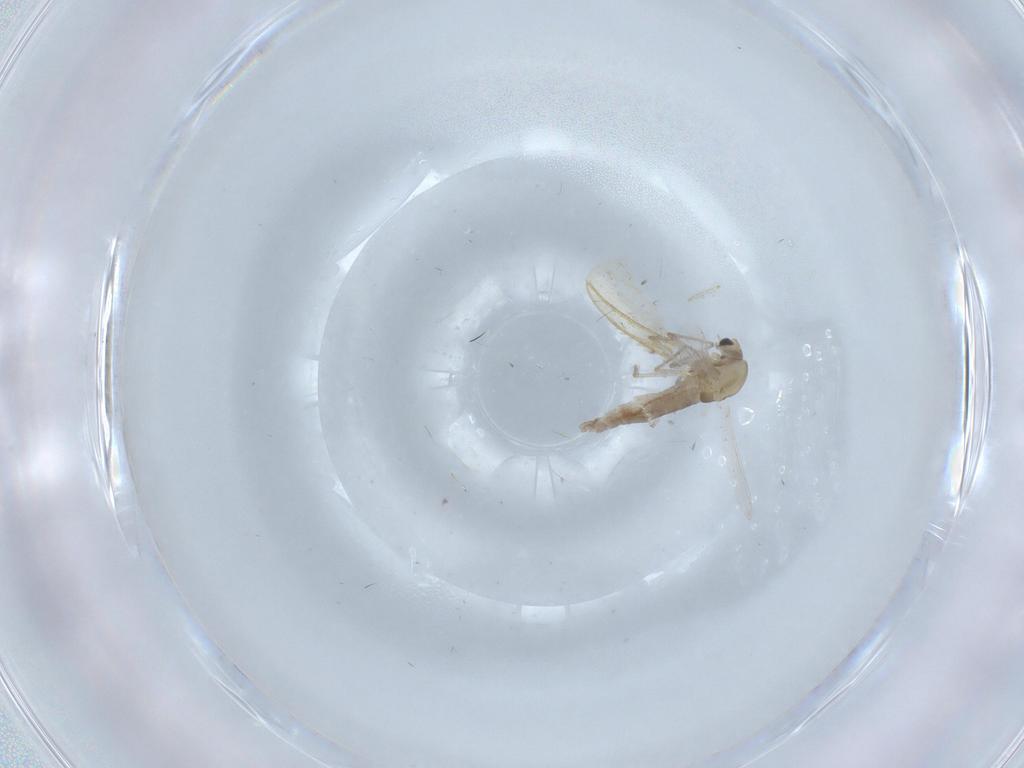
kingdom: Animalia
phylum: Arthropoda
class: Insecta
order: Diptera
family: Chironomidae
